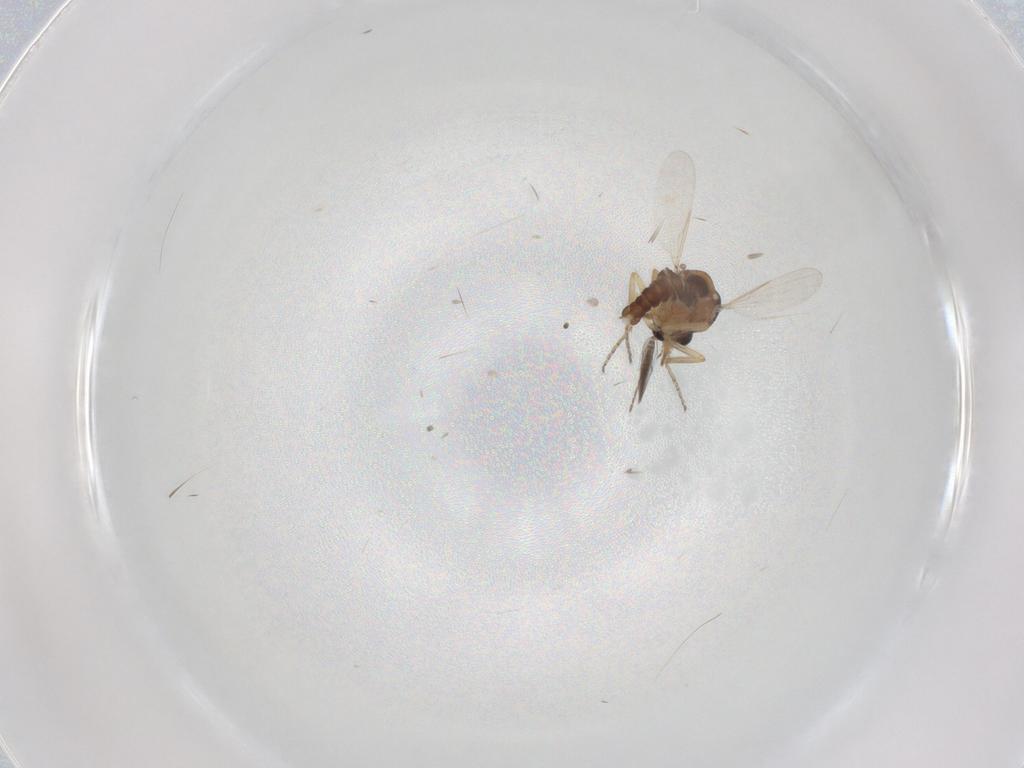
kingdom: Animalia
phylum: Arthropoda
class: Insecta
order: Diptera
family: Ceratopogonidae
